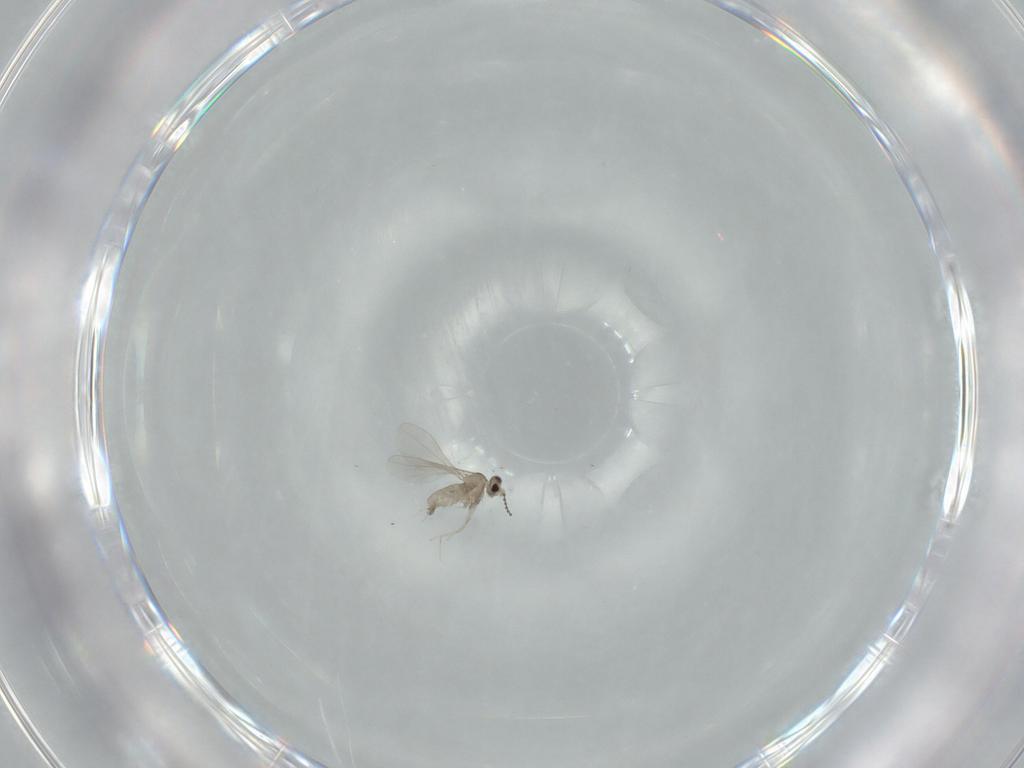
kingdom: Animalia
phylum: Arthropoda
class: Insecta
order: Diptera
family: Cecidomyiidae
